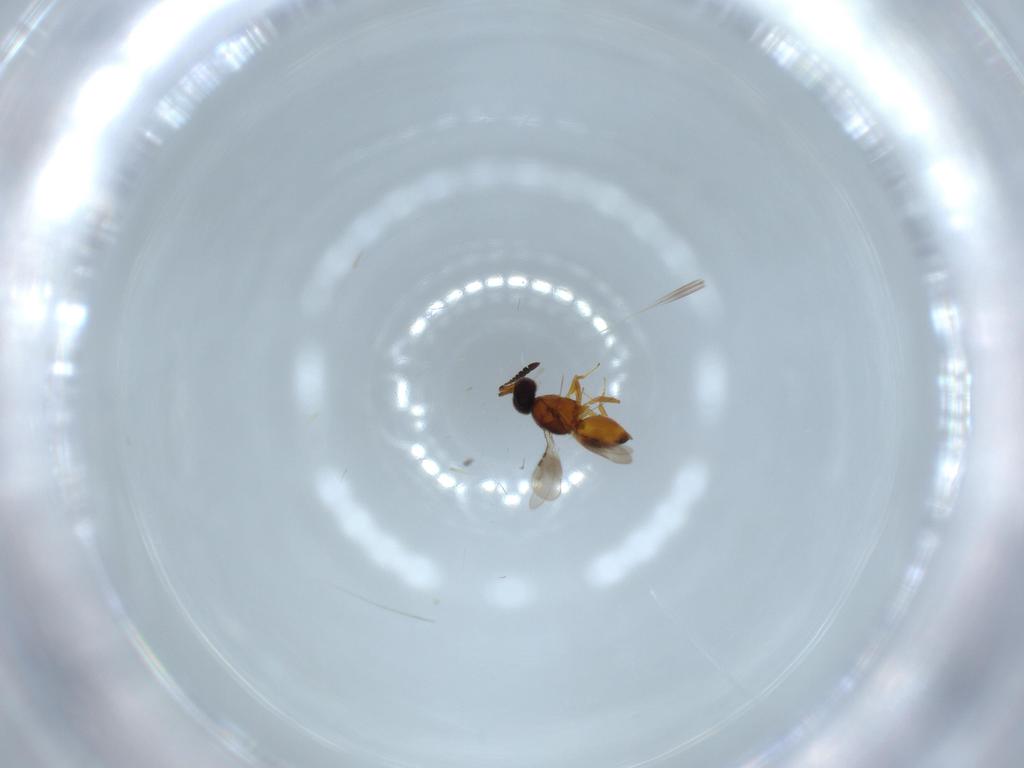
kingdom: Animalia
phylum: Arthropoda
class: Insecta
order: Hymenoptera
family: Ceraphronidae
